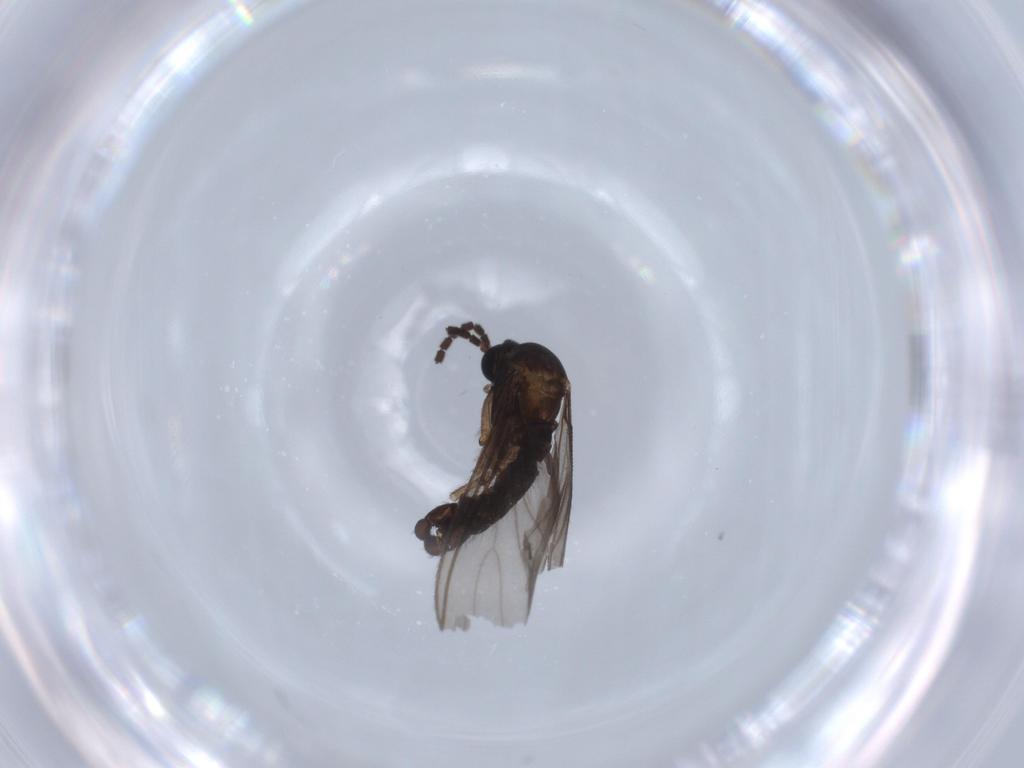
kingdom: Animalia
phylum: Arthropoda
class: Insecta
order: Diptera
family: Sciaridae
